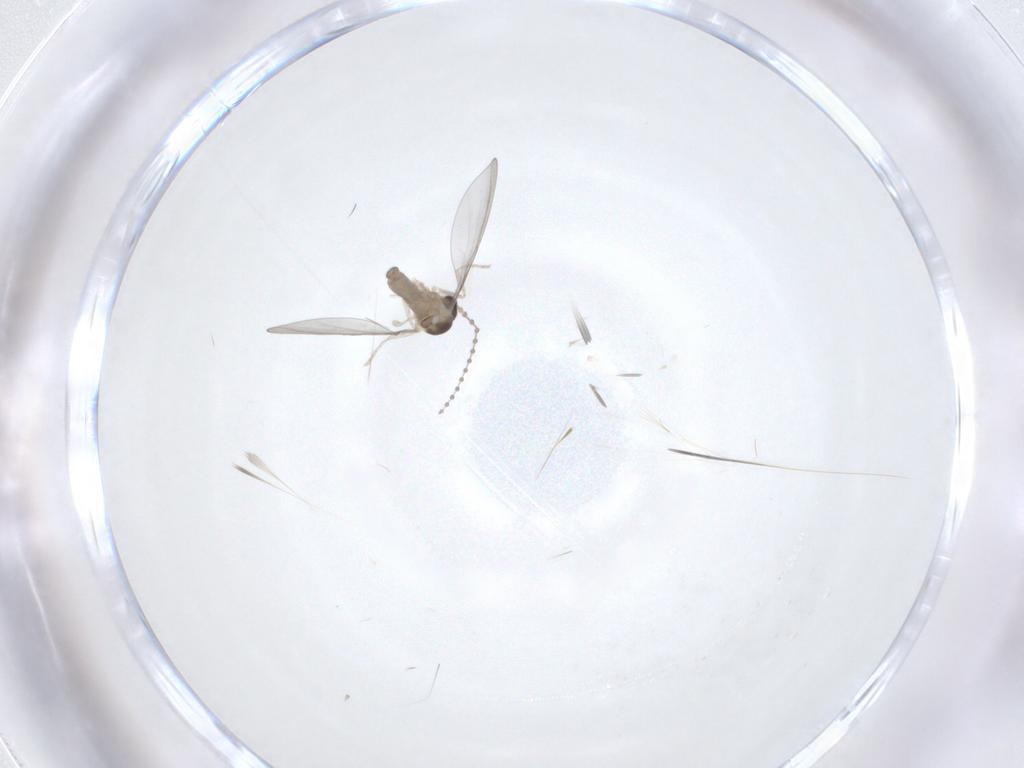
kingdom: Animalia
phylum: Arthropoda
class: Insecta
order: Diptera
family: Cecidomyiidae
